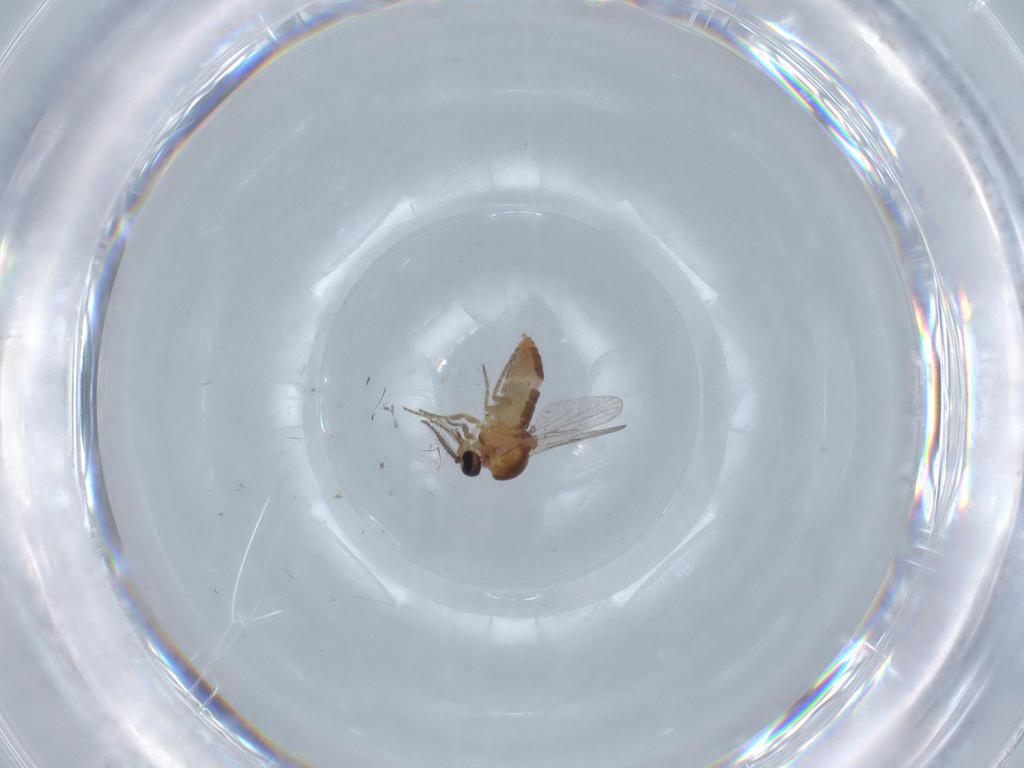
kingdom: Animalia
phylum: Arthropoda
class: Insecta
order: Diptera
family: Ceratopogonidae
